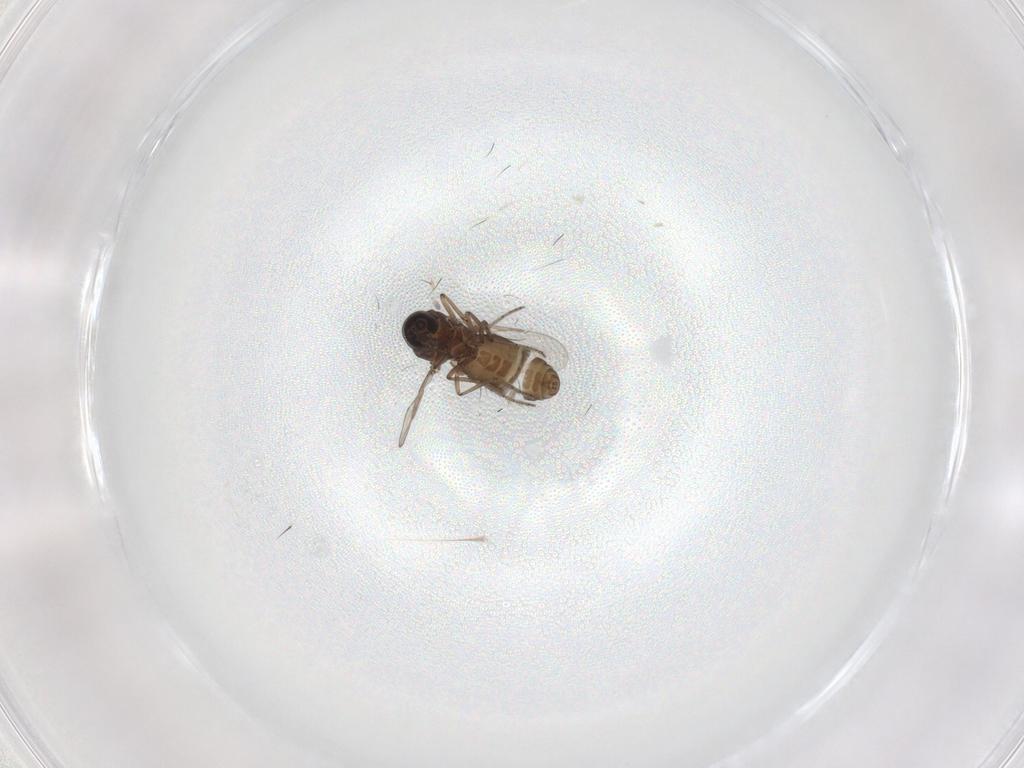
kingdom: Animalia
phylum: Arthropoda
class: Insecta
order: Diptera
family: Ceratopogonidae
